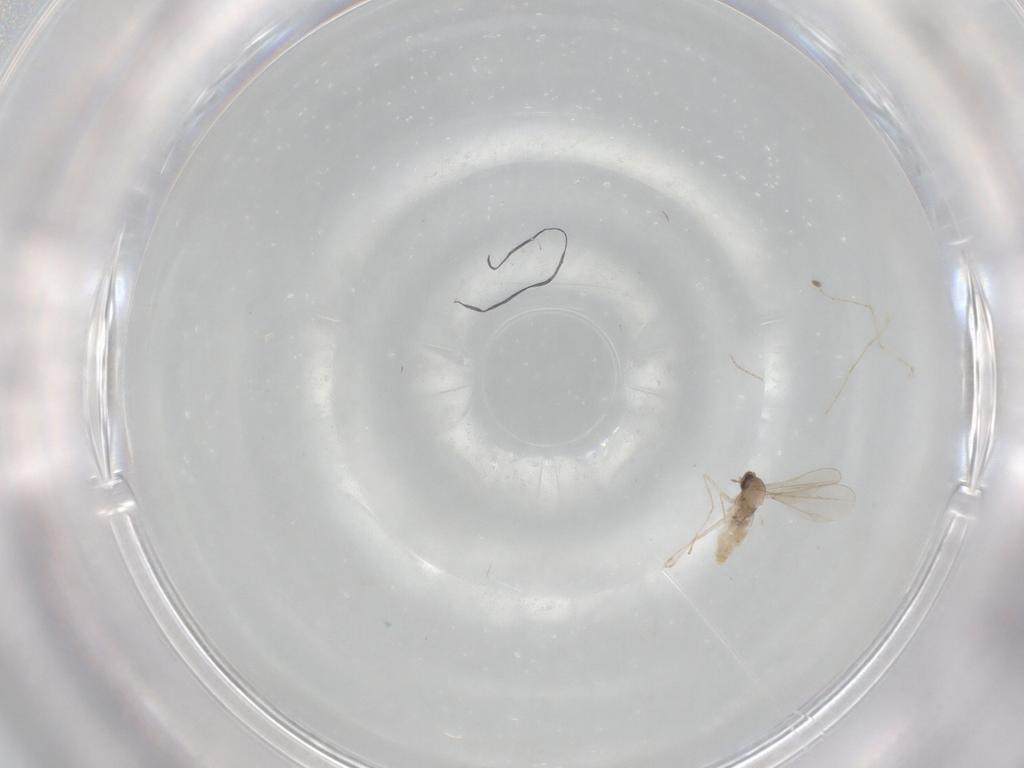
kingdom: Animalia
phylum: Arthropoda
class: Insecta
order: Diptera
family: Cecidomyiidae
